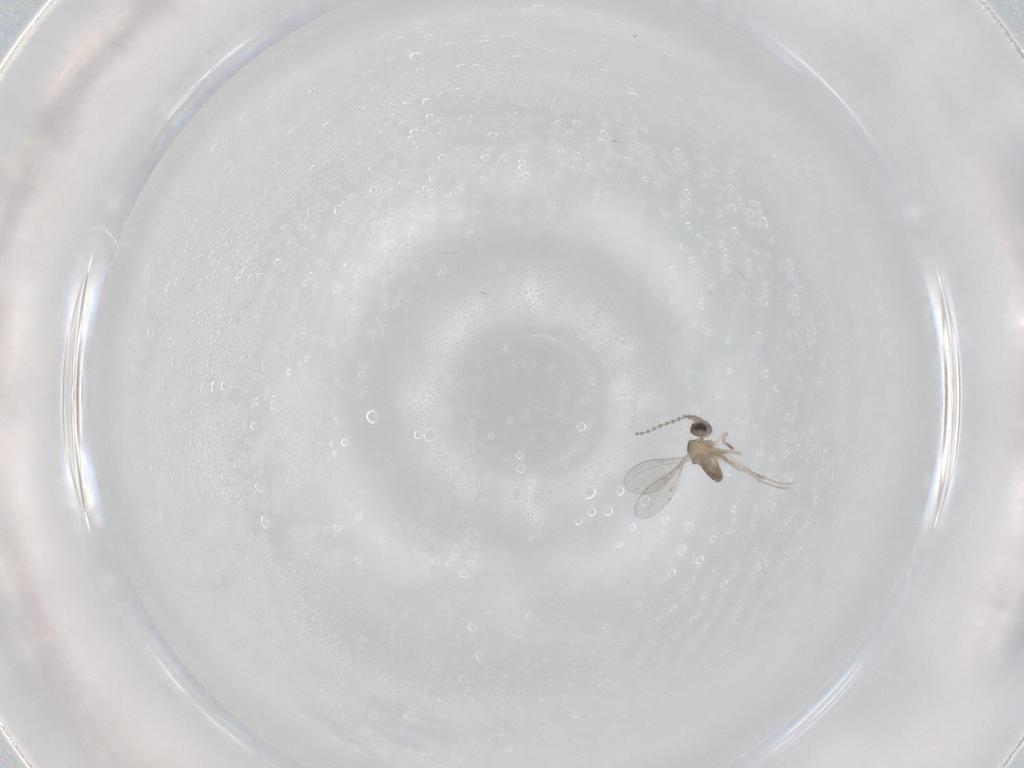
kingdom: Animalia
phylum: Arthropoda
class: Insecta
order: Diptera
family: Cecidomyiidae
